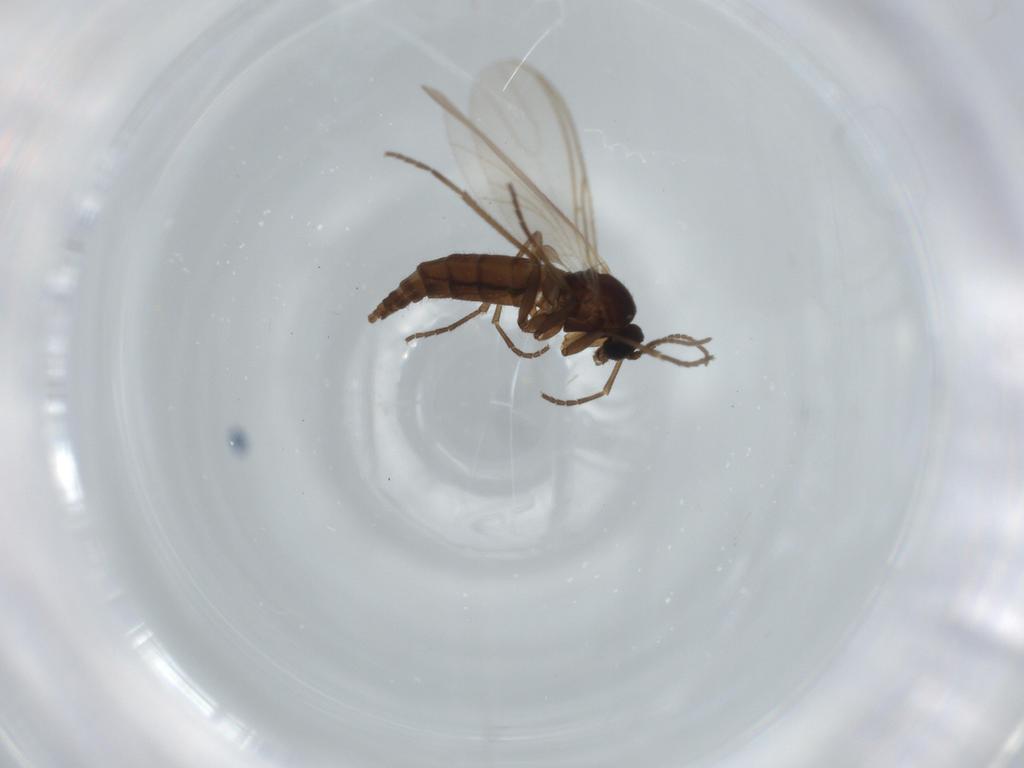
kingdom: Animalia
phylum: Arthropoda
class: Insecta
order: Diptera
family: Sciaridae
